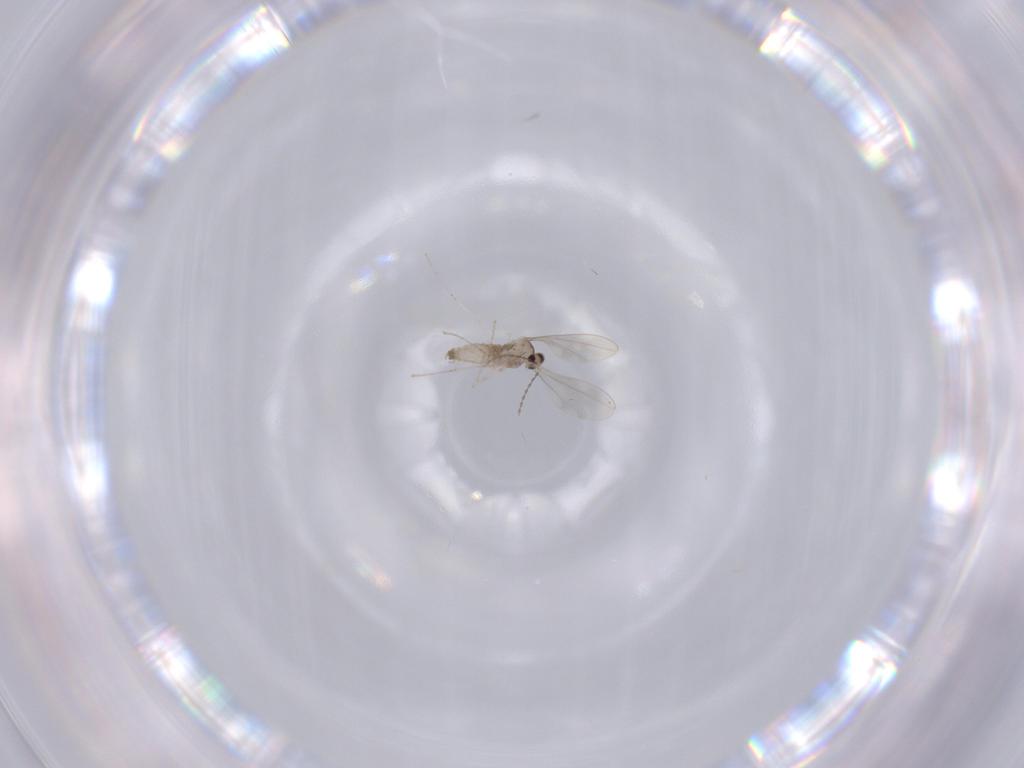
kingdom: Animalia
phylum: Arthropoda
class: Insecta
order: Diptera
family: Cecidomyiidae
